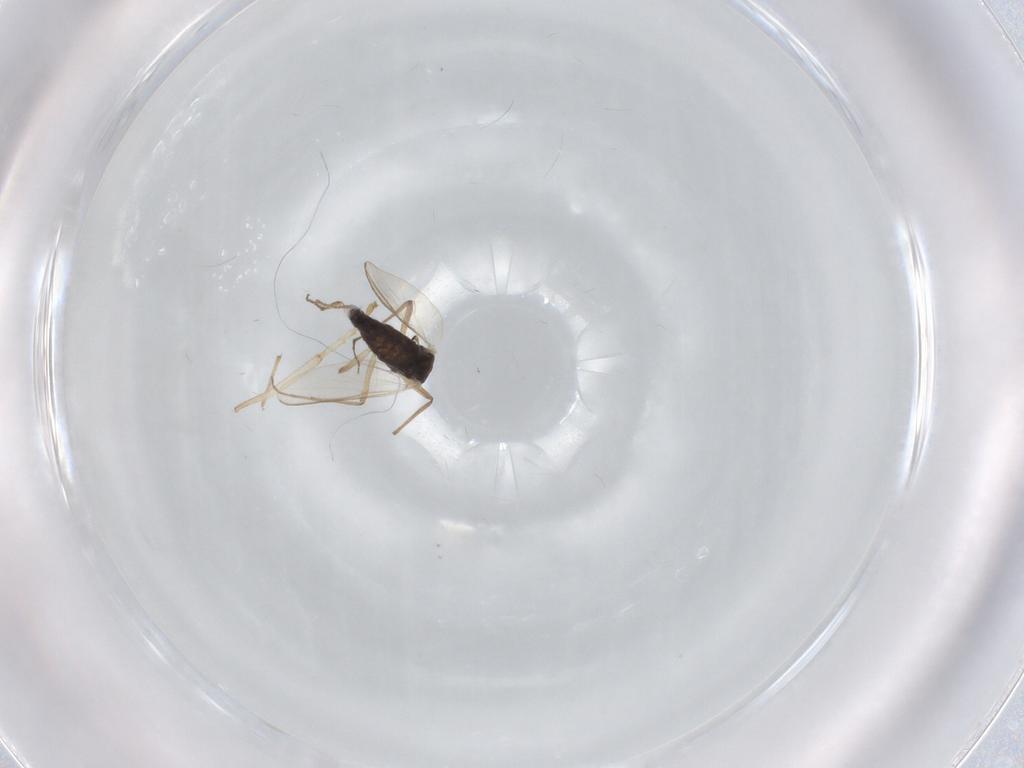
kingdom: Animalia
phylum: Arthropoda
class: Insecta
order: Diptera
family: Chironomidae
